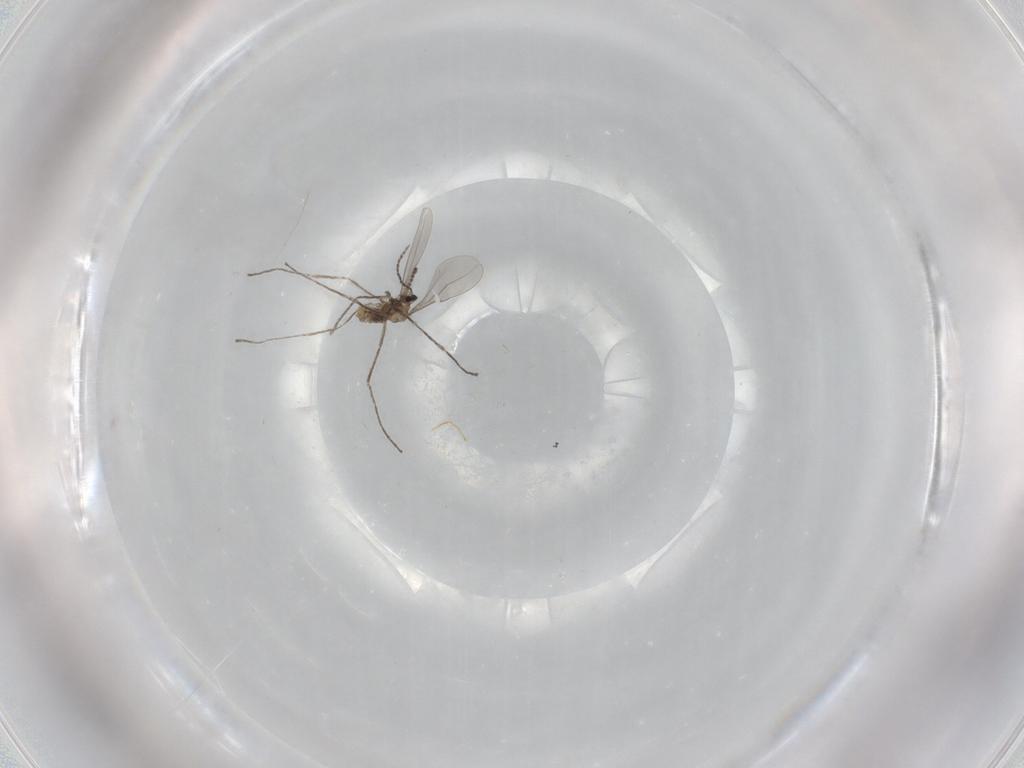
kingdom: Animalia
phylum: Arthropoda
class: Insecta
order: Diptera
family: Cecidomyiidae
